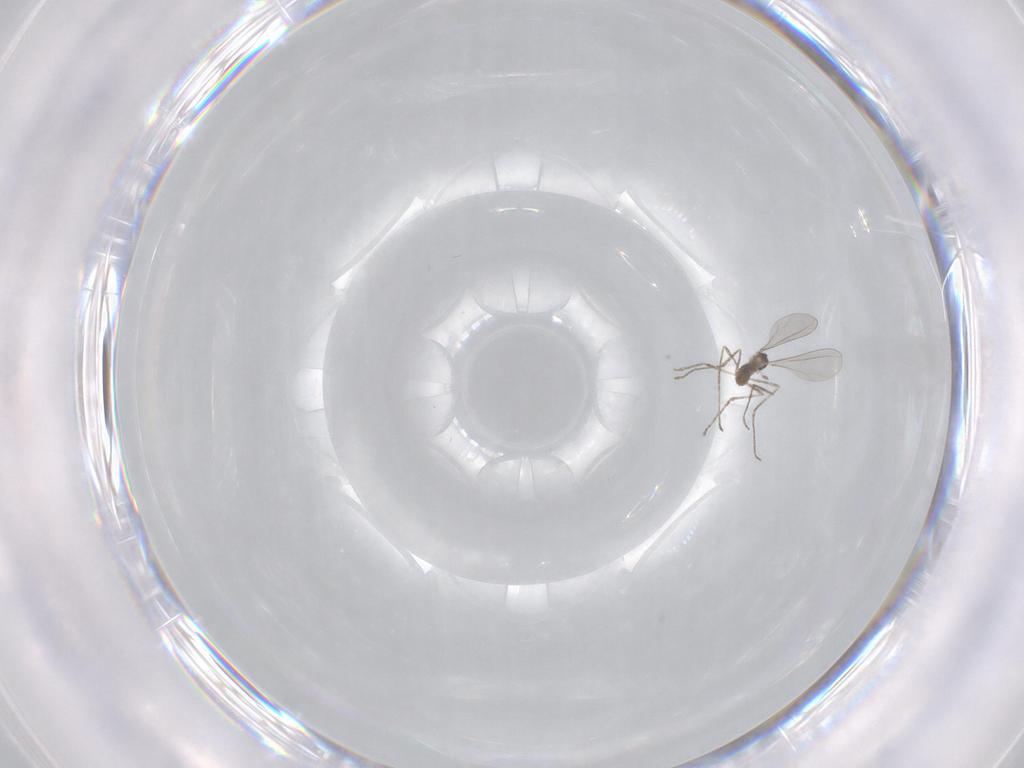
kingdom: Animalia
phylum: Arthropoda
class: Insecta
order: Diptera
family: Cecidomyiidae
